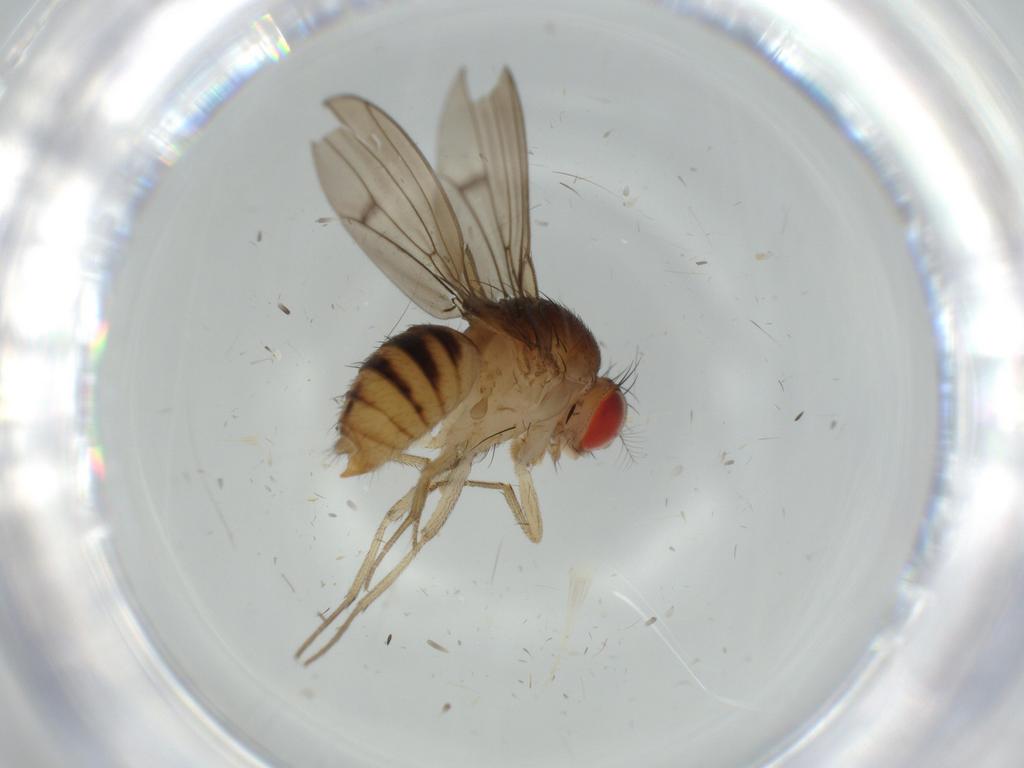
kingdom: Animalia
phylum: Arthropoda
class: Insecta
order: Diptera
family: Drosophilidae
